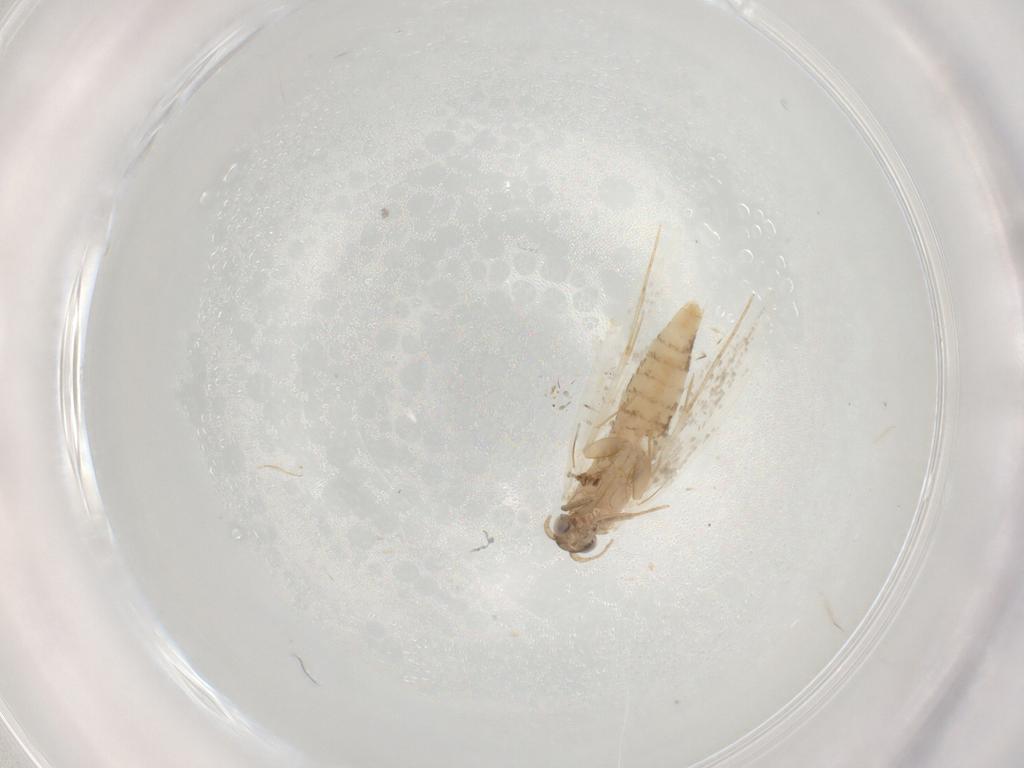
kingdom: Animalia
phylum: Arthropoda
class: Insecta
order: Lepidoptera
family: Tineidae
